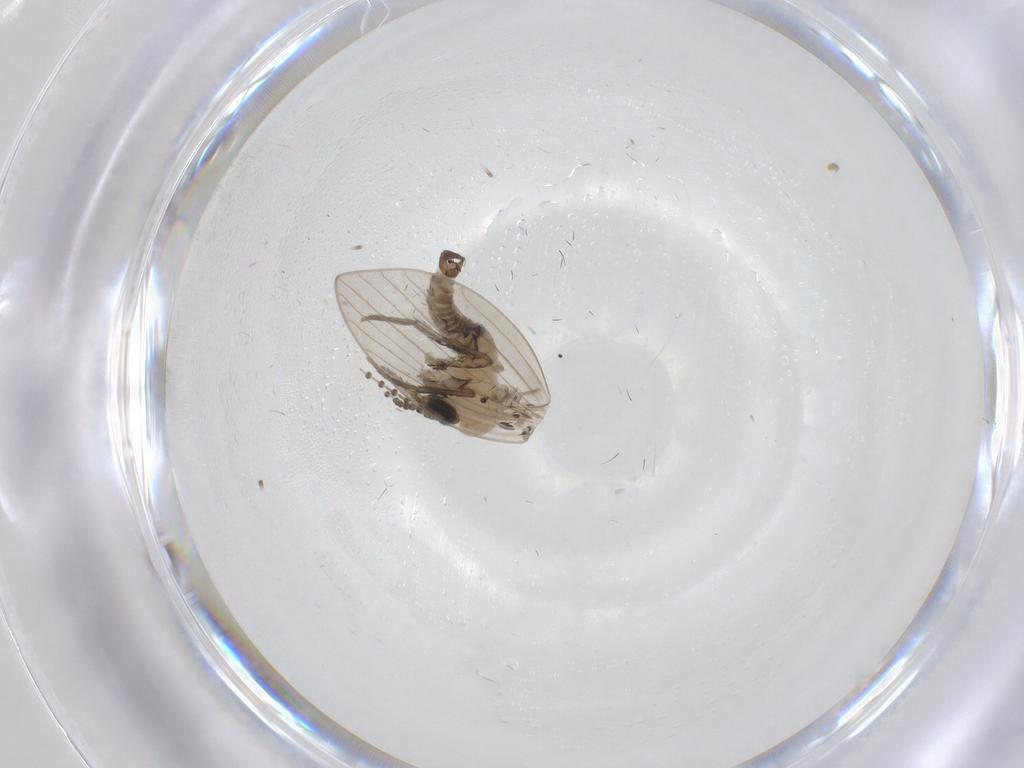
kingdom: Animalia
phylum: Arthropoda
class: Insecta
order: Diptera
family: Psychodidae
